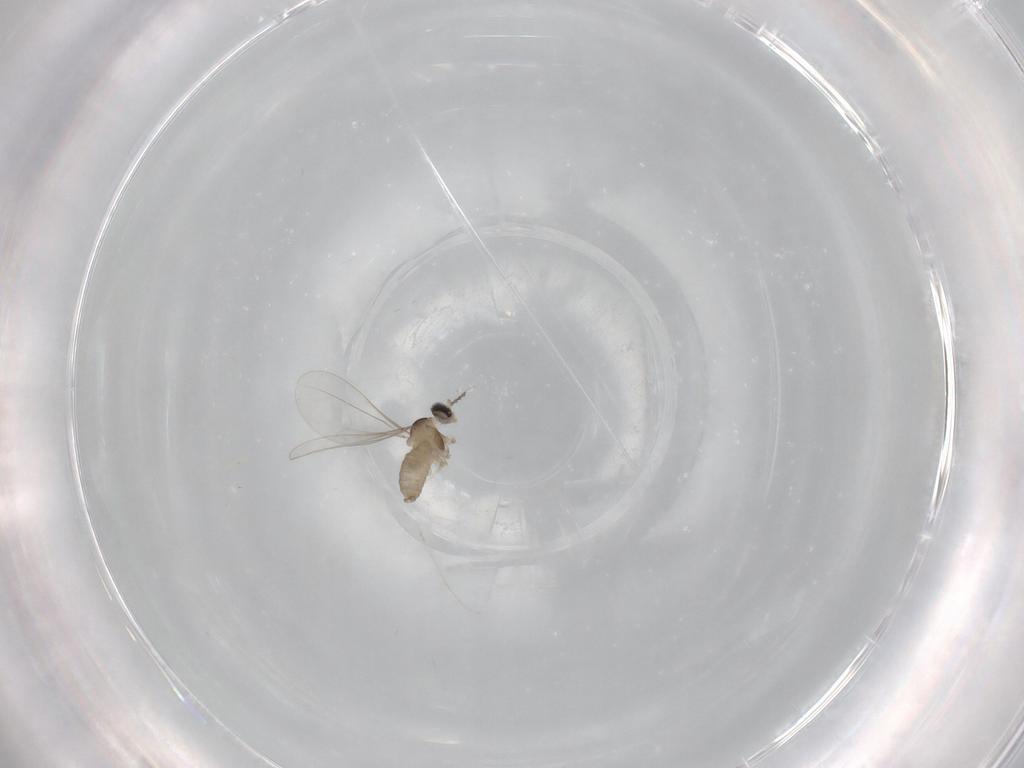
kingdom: Animalia
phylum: Arthropoda
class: Insecta
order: Diptera
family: Cecidomyiidae
